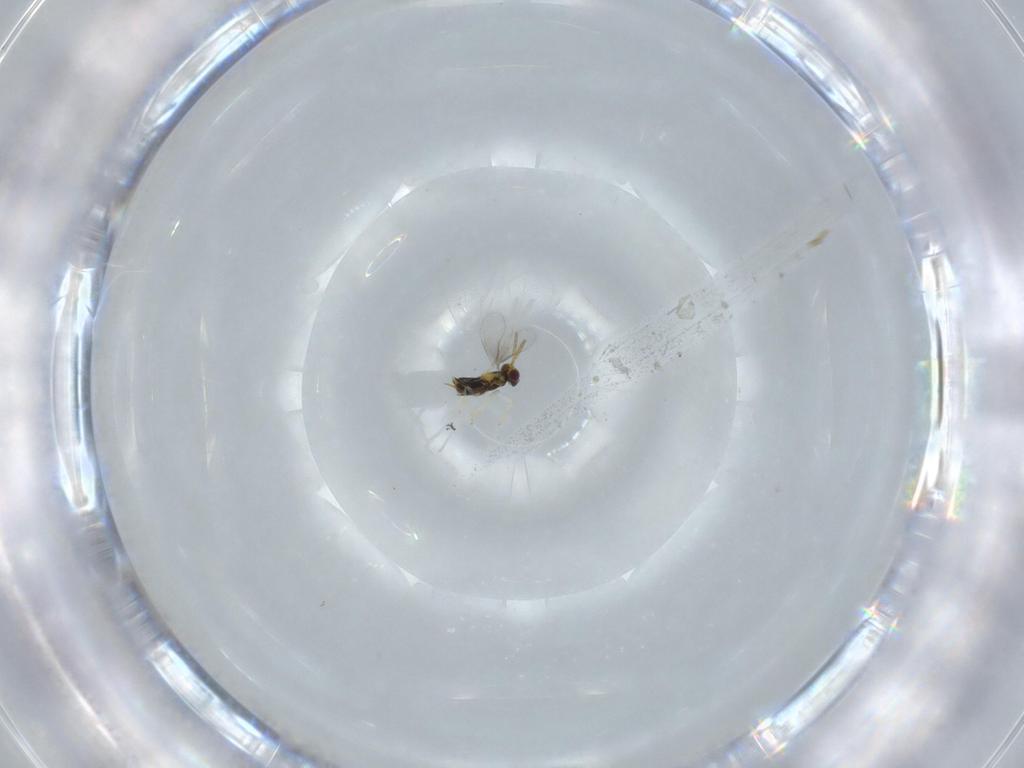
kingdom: Animalia
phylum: Arthropoda
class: Insecta
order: Hymenoptera
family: Aphelinidae
